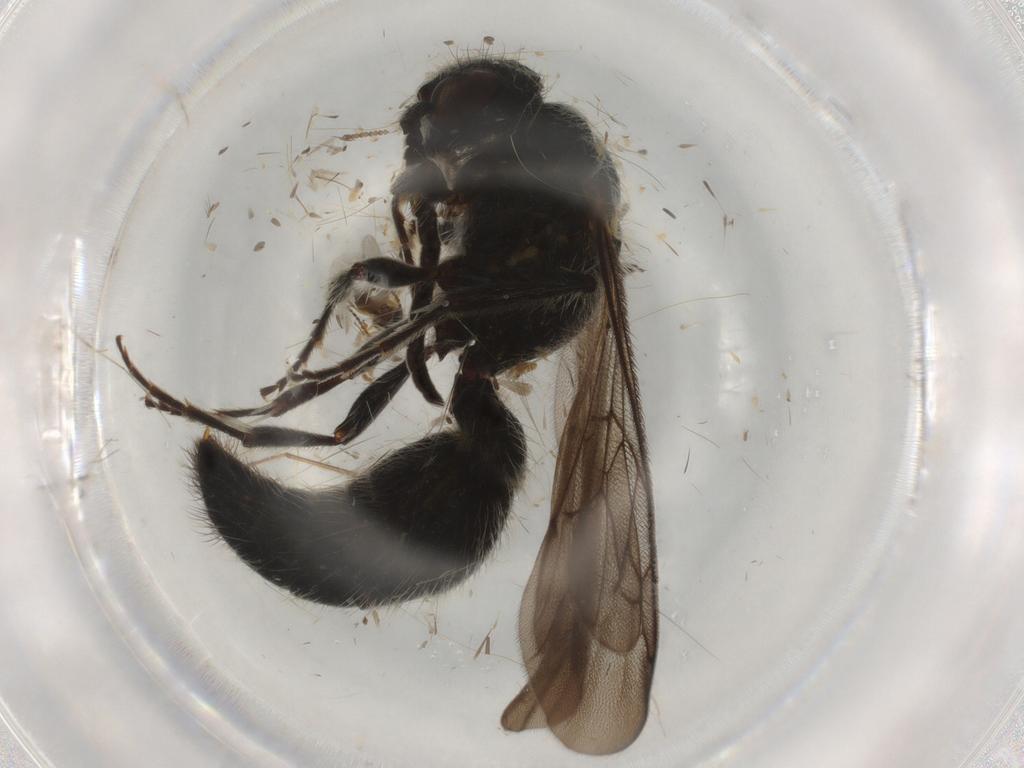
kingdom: Animalia
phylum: Arthropoda
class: Insecta
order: Hymenoptera
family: Scelionidae
